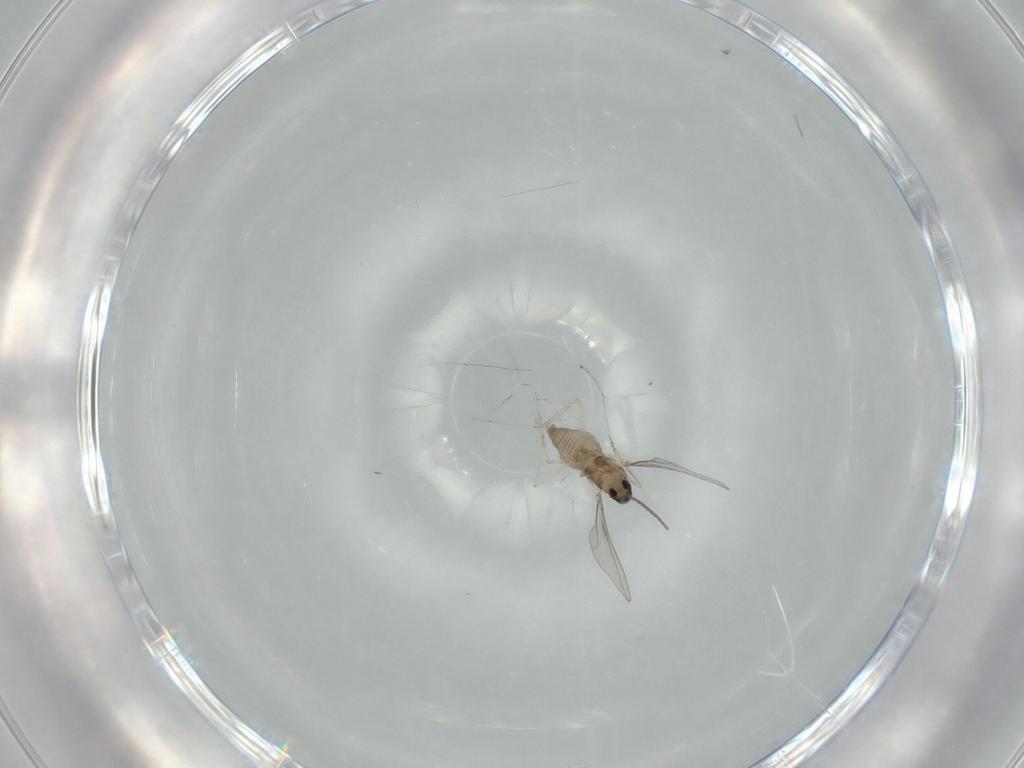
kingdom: Animalia
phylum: Arthropoda
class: Insecta
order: Diptera
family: Cecidomyiidae
